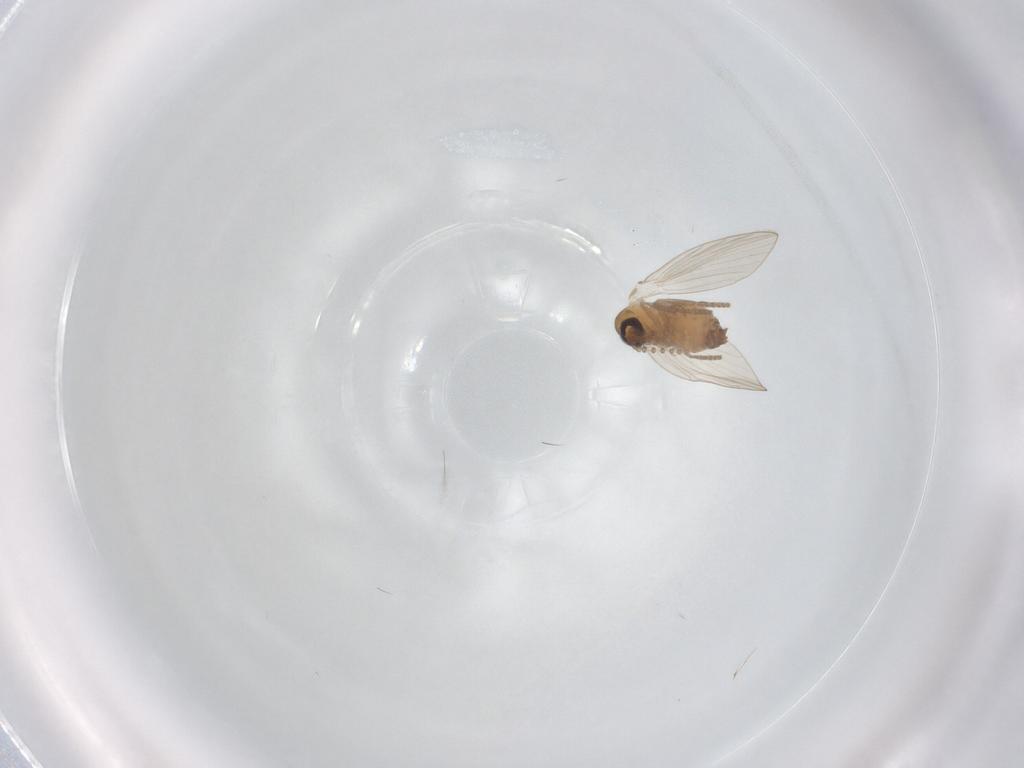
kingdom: Animalia
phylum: Arthropoda
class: Insecta
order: Diptera
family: Psychodidae
